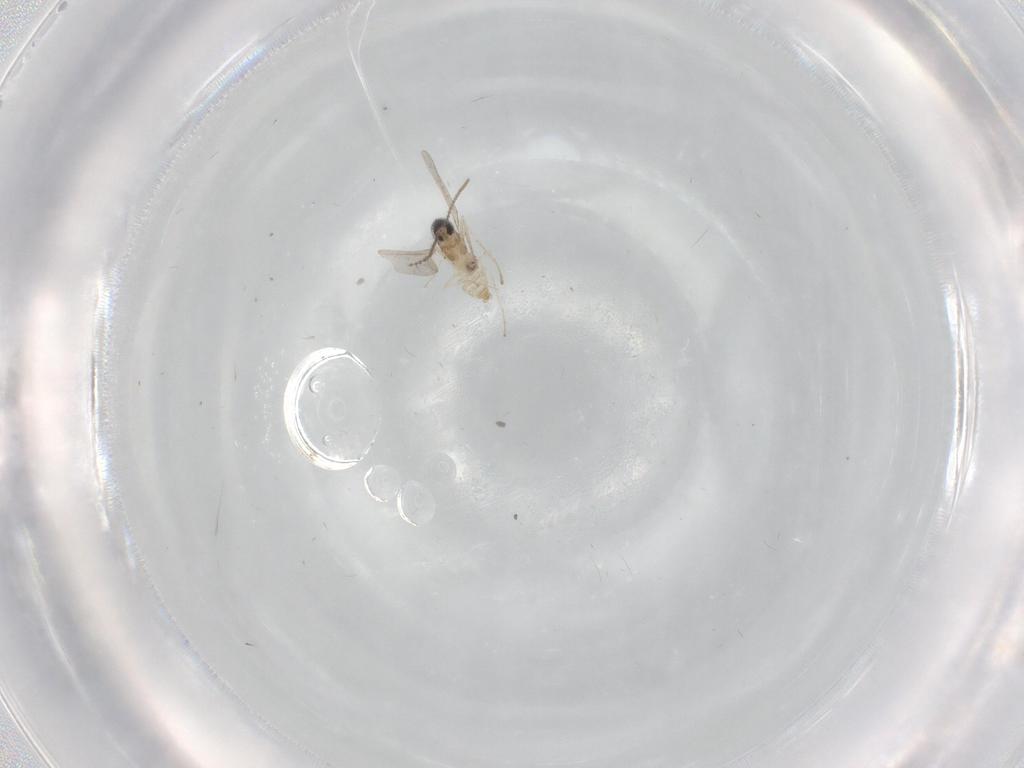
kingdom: Animalia
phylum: Arthropoda
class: Insecta
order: Diptera
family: Cecidomyiidae
